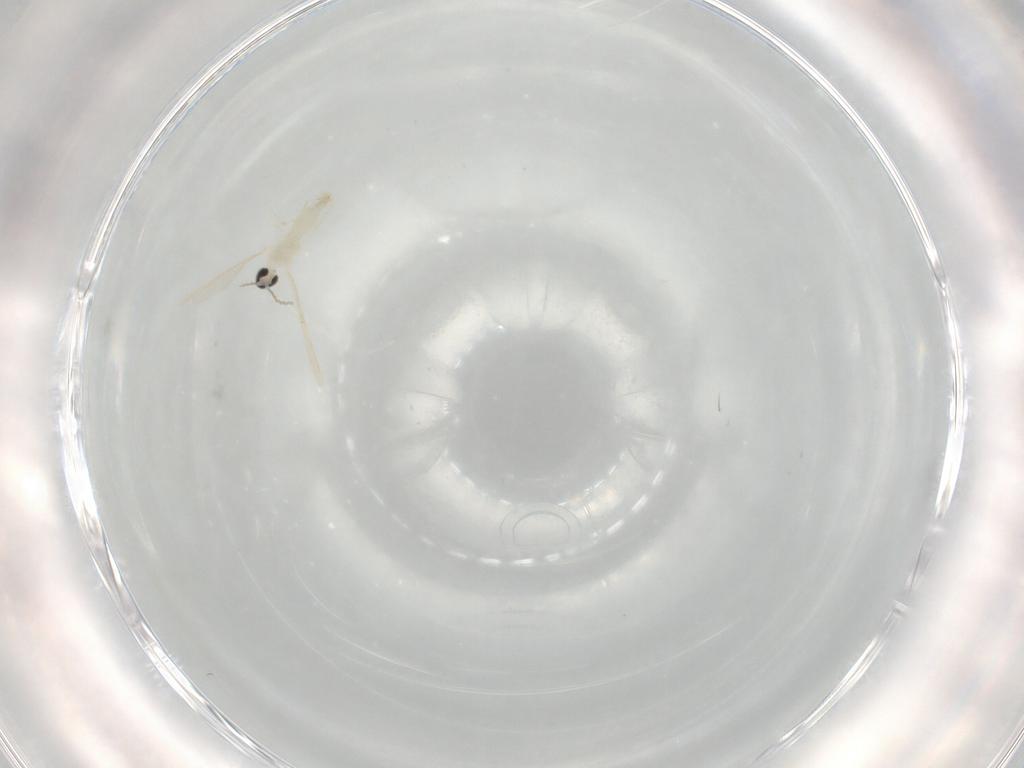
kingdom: Animalia
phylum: Arthropoda
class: Insecta
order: Diptera
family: Cecidomyiidae
